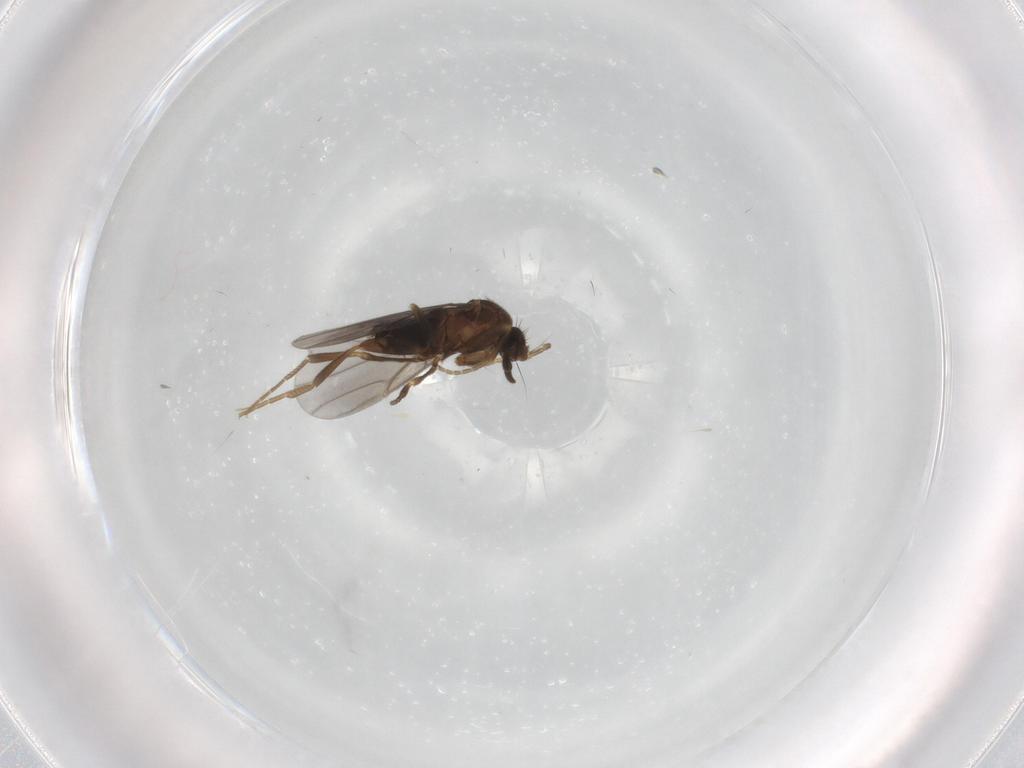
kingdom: Animalia
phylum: Arthropoda
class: Insecta
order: Diptera
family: Phoridae
